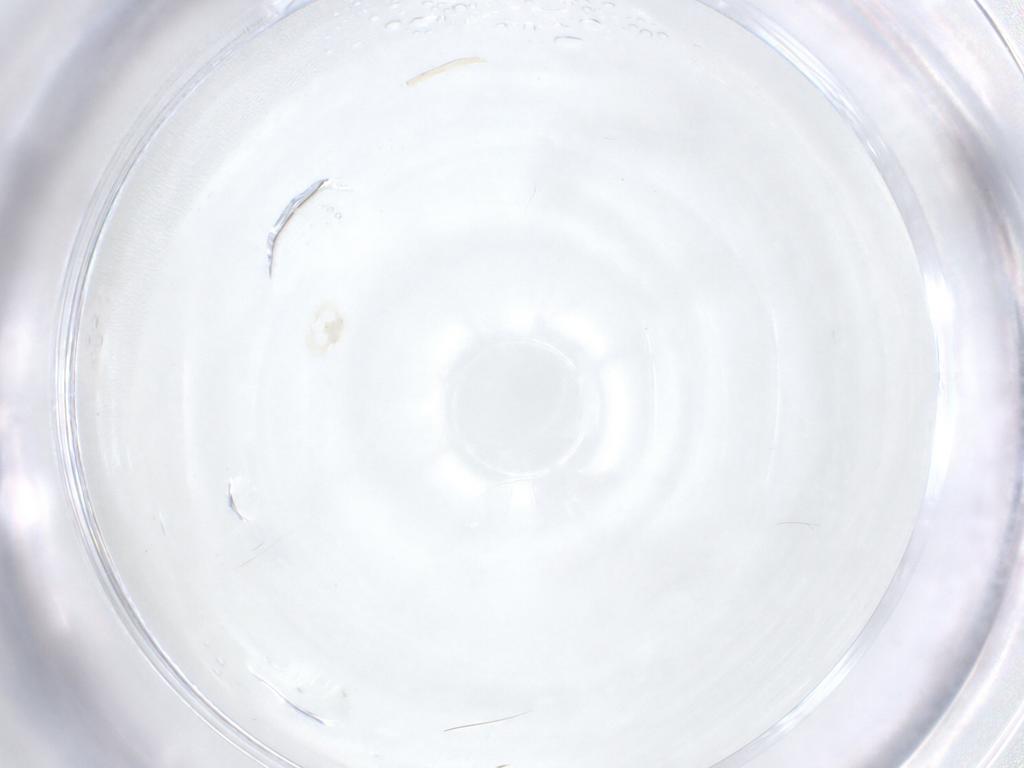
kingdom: Animalia
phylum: Arthropoda
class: Arachnida
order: Trombidiformes
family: Anystidae
